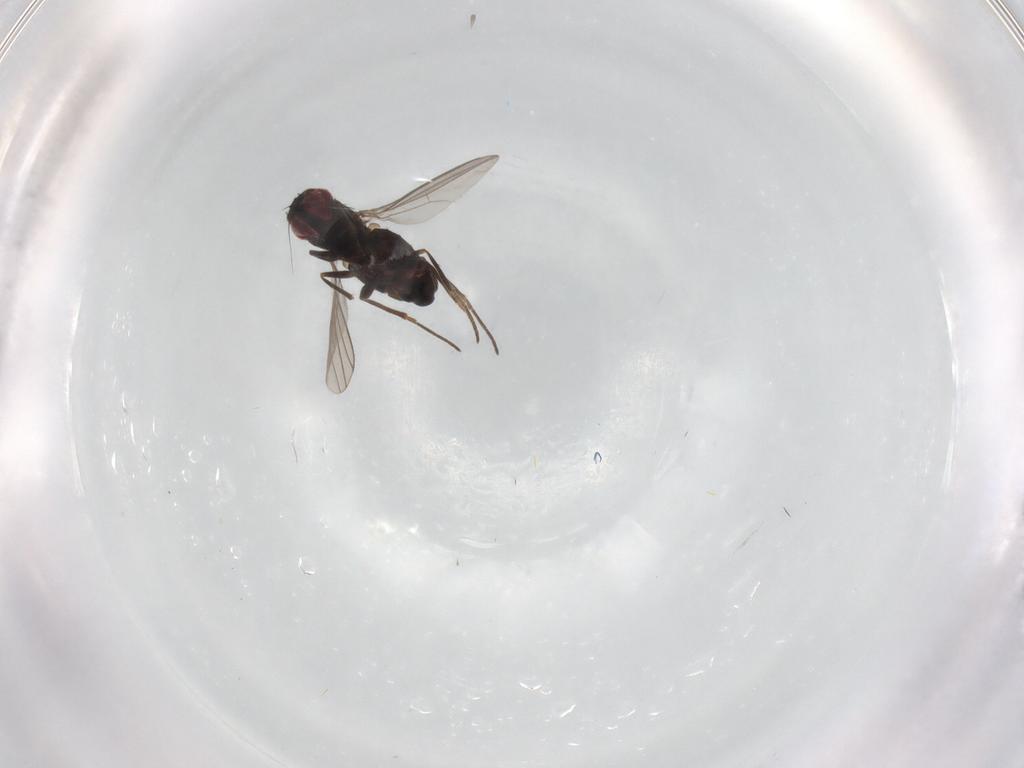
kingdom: Animalia
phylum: Arthropoda
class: Insecta
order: Diptera
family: Dolichopodidae
